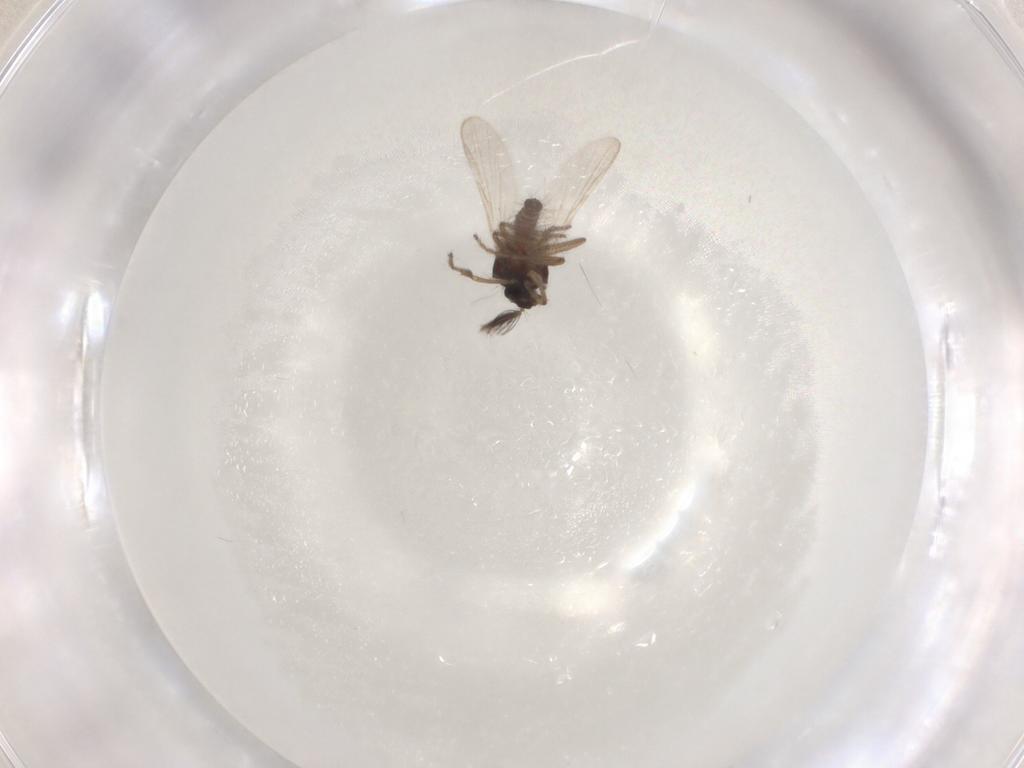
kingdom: Animalia
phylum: Arthropoda
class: Insecta
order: Diptera
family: Ceratopogonidae
